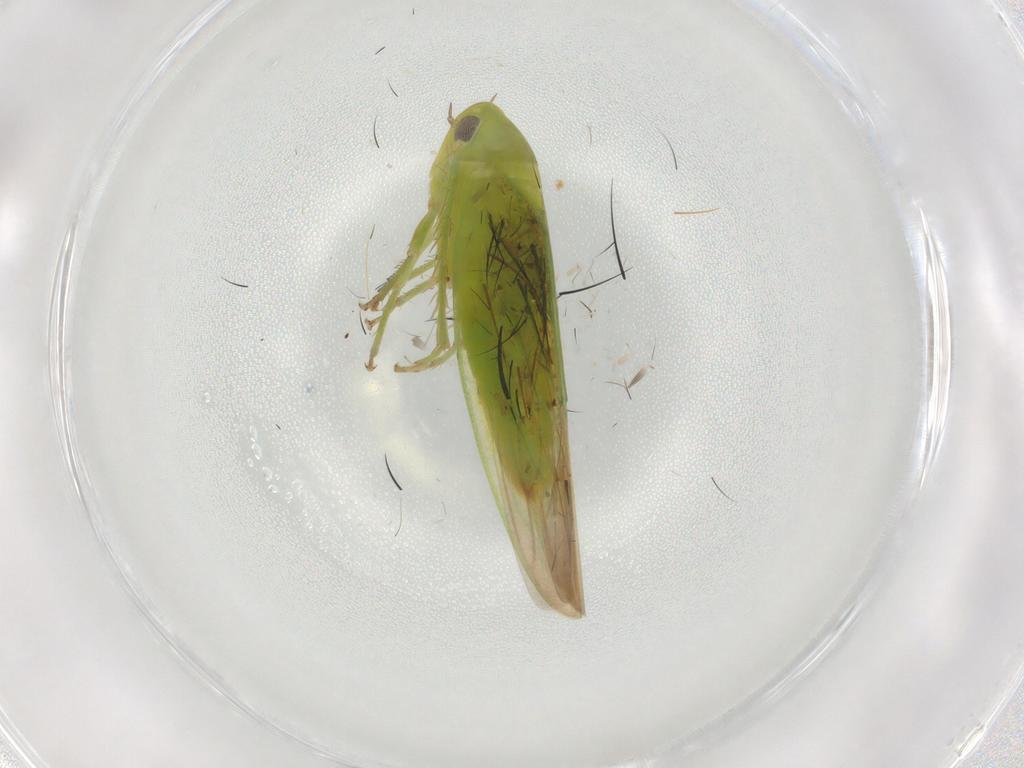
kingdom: Animalia
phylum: Arthropoda
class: Insecta
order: Hemiptera
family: Cicadellidae
